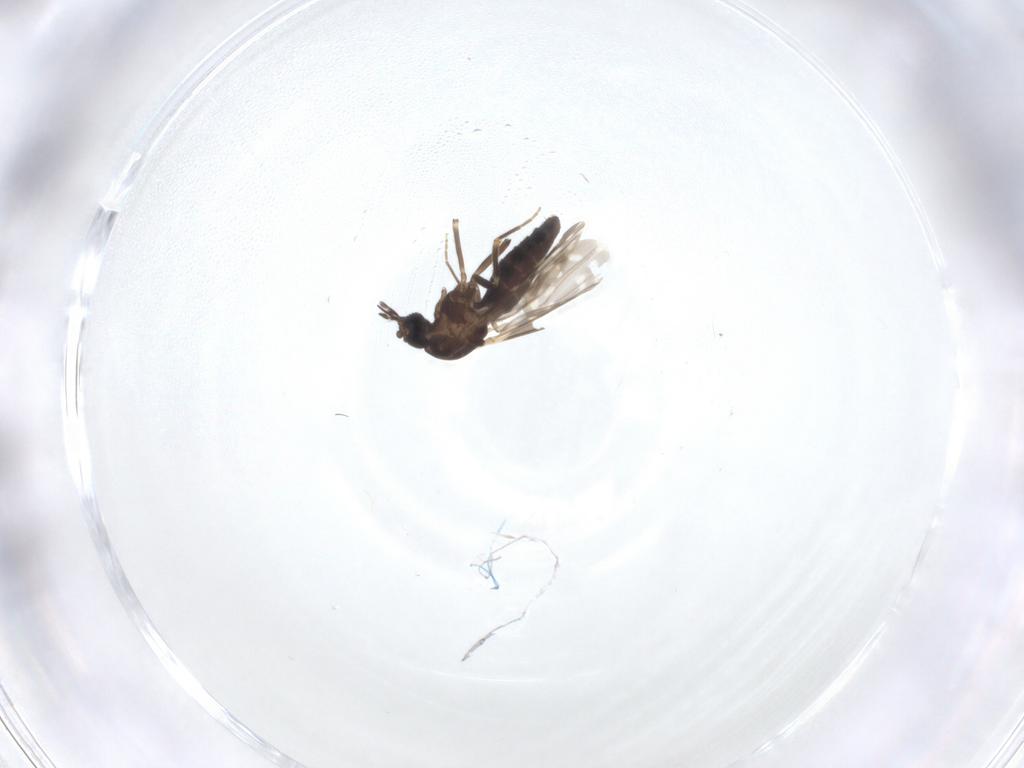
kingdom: Animalia
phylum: Arthropoda
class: Insecta
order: Diptera
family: Ceratopogonidae
